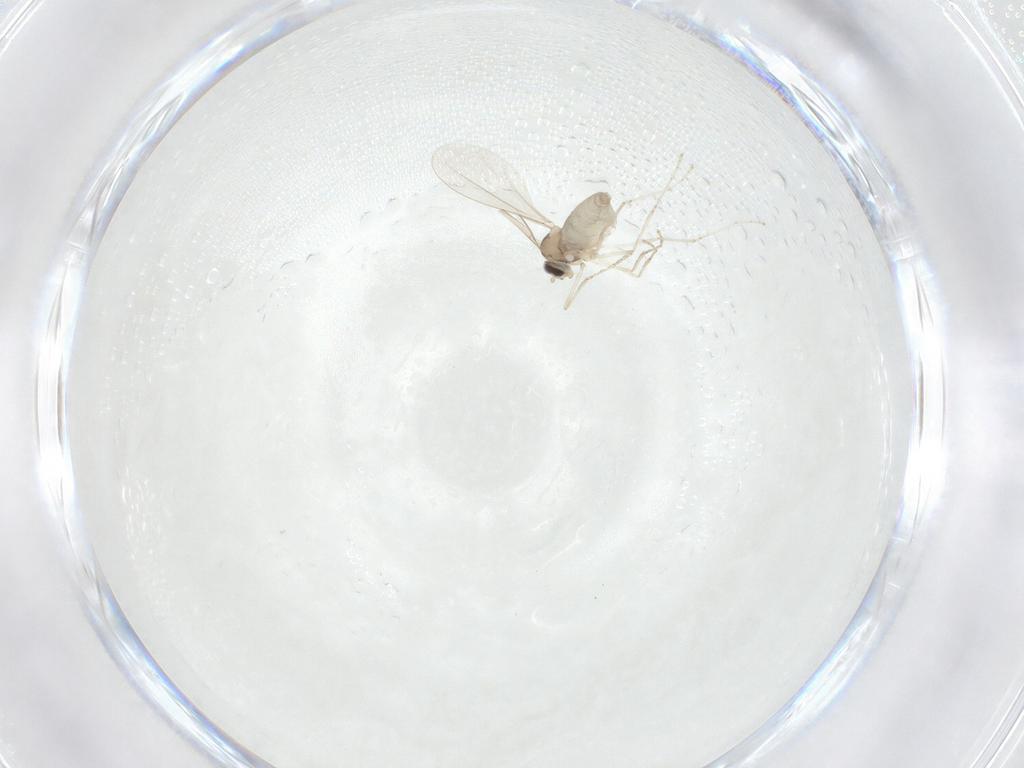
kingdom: Animalia
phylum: Arthropoda
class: Insecta
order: Diptera
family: Cecidomyiidae
